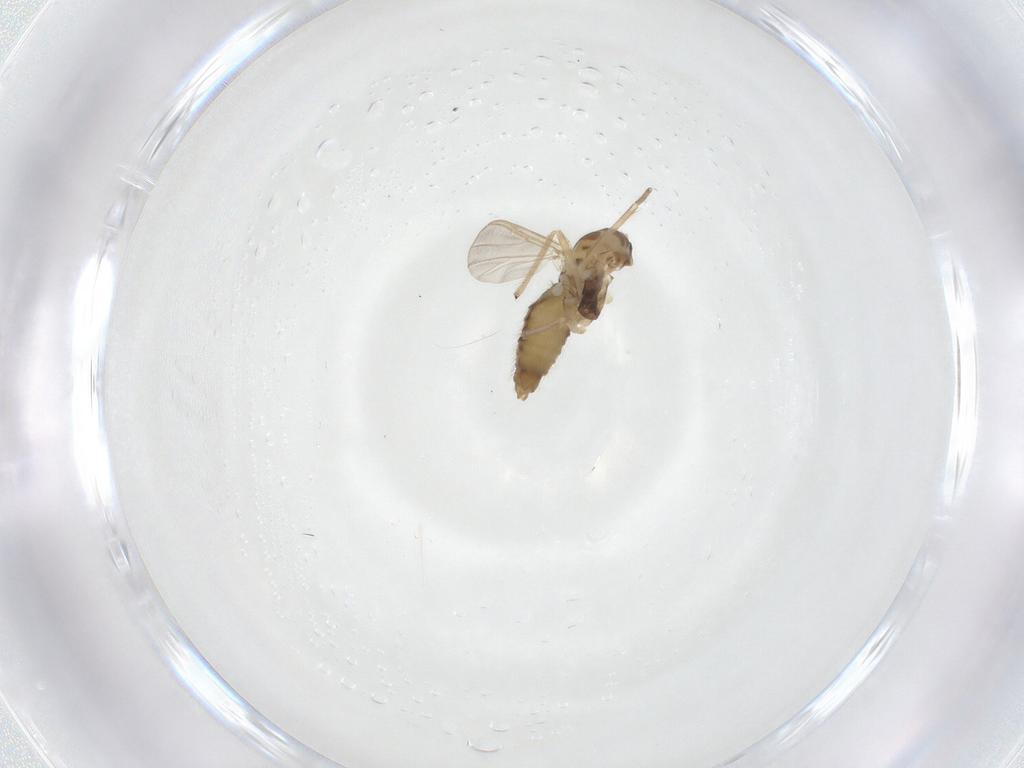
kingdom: Animalia
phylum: Arthropoda
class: Insecta
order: Diptera
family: Chironomidae
